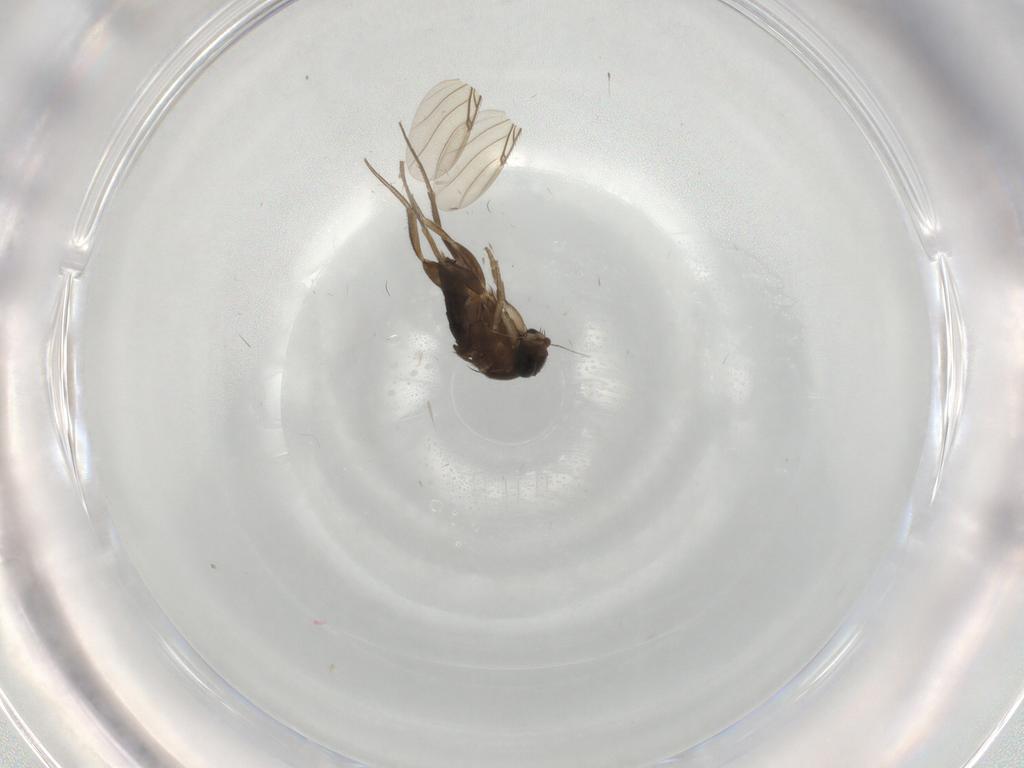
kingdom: Animalia
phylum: Arthropoda
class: Insecta
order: Diptera
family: Phoridae
